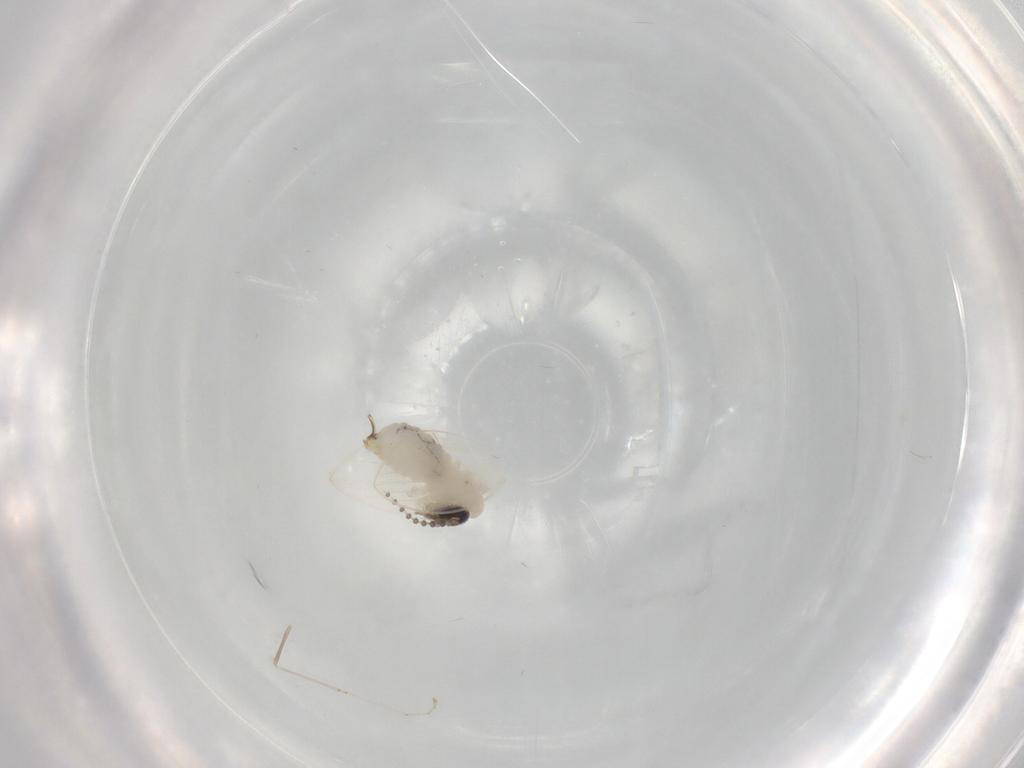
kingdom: Animalia
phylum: Arthropoda
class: Insecta
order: Diptera
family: Psychodidae
